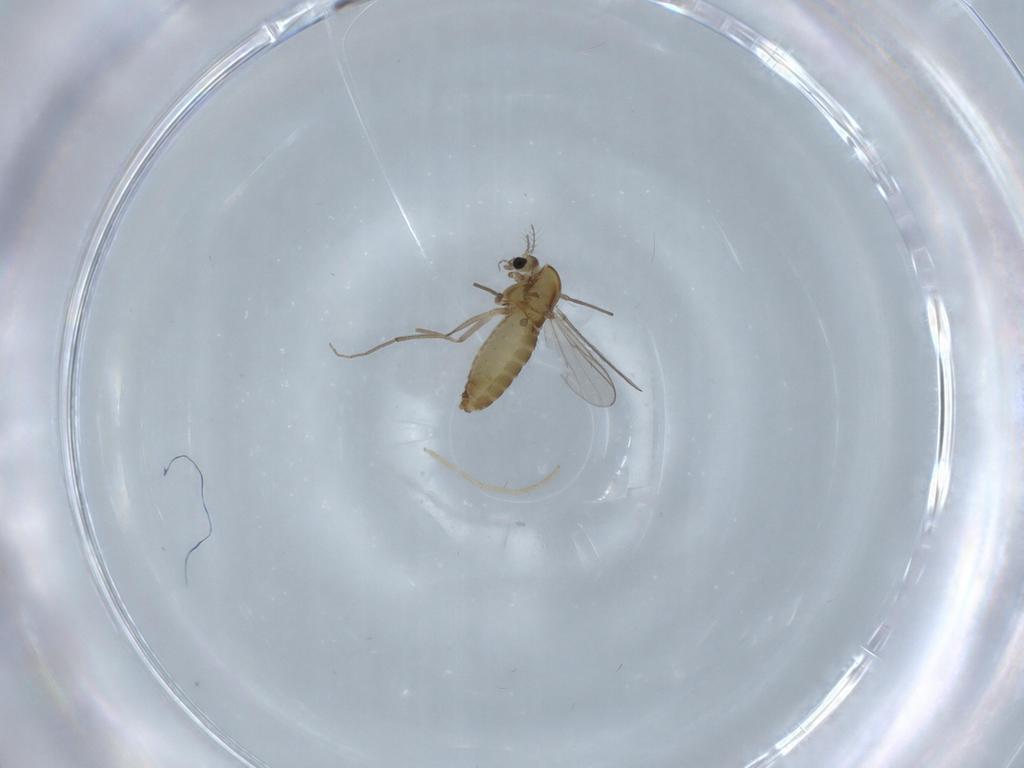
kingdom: Animalia
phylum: Arthropoda
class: Insecta
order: Diptera
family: Chironomidae
